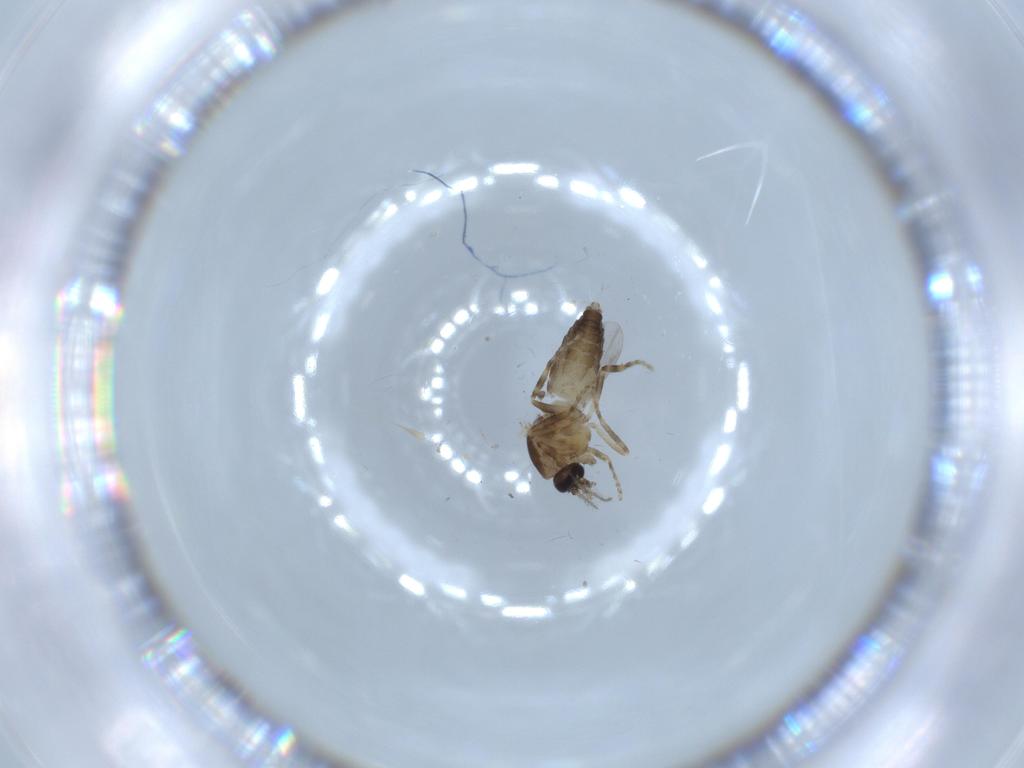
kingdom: Animalia
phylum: Arthropoda
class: Insecta
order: Diptera
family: Ceratopogonidae
